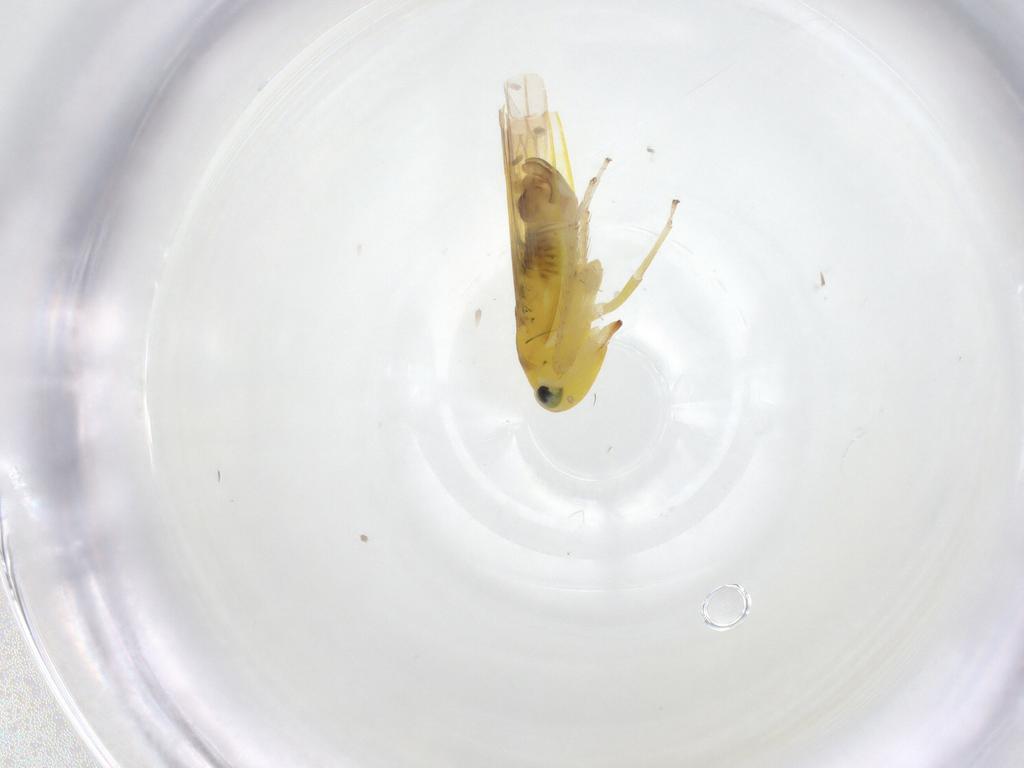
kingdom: Animalia
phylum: Arthropoda
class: Insecta
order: Hemiptera
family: Cicadellidae
